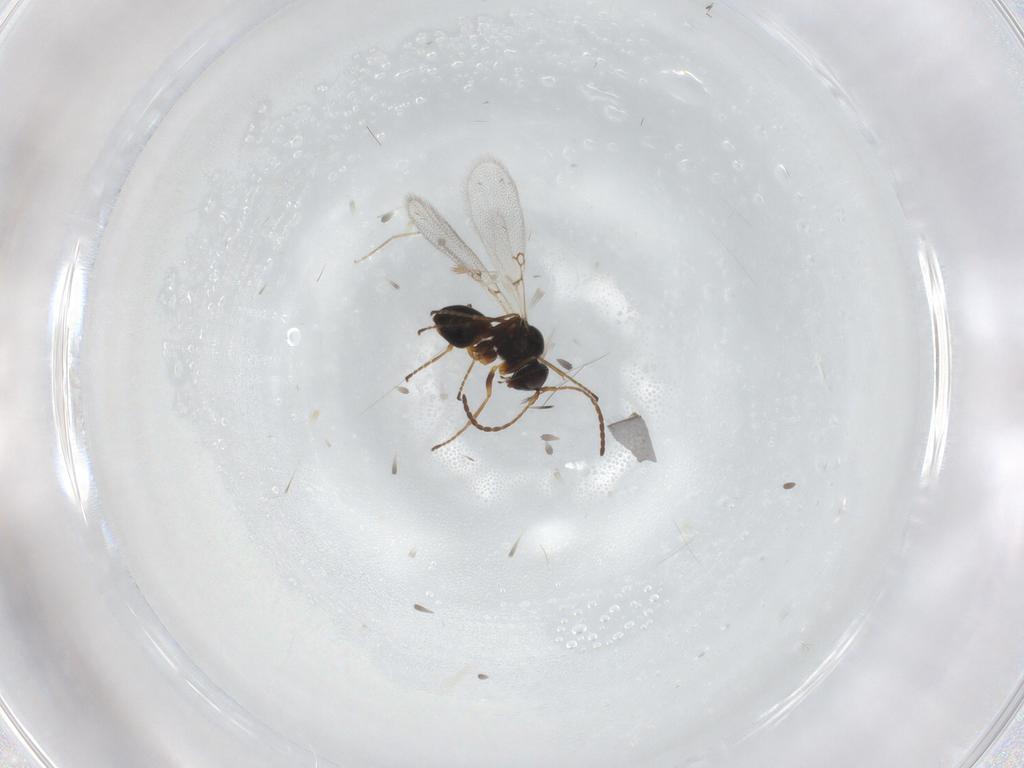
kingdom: Animalia
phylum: Arthropoda
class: Insecta
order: Hymenoptera
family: Figitidae
